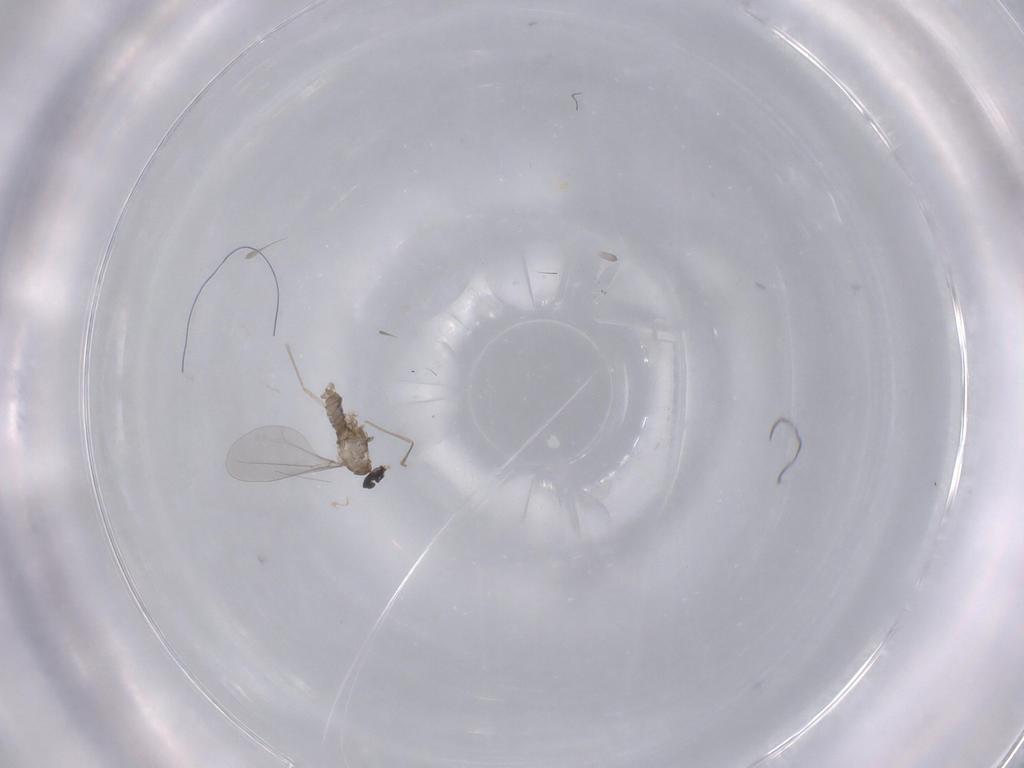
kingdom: Animalia
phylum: Arthropoda
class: Insecta
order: Diptera
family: Cecidomyiidae
